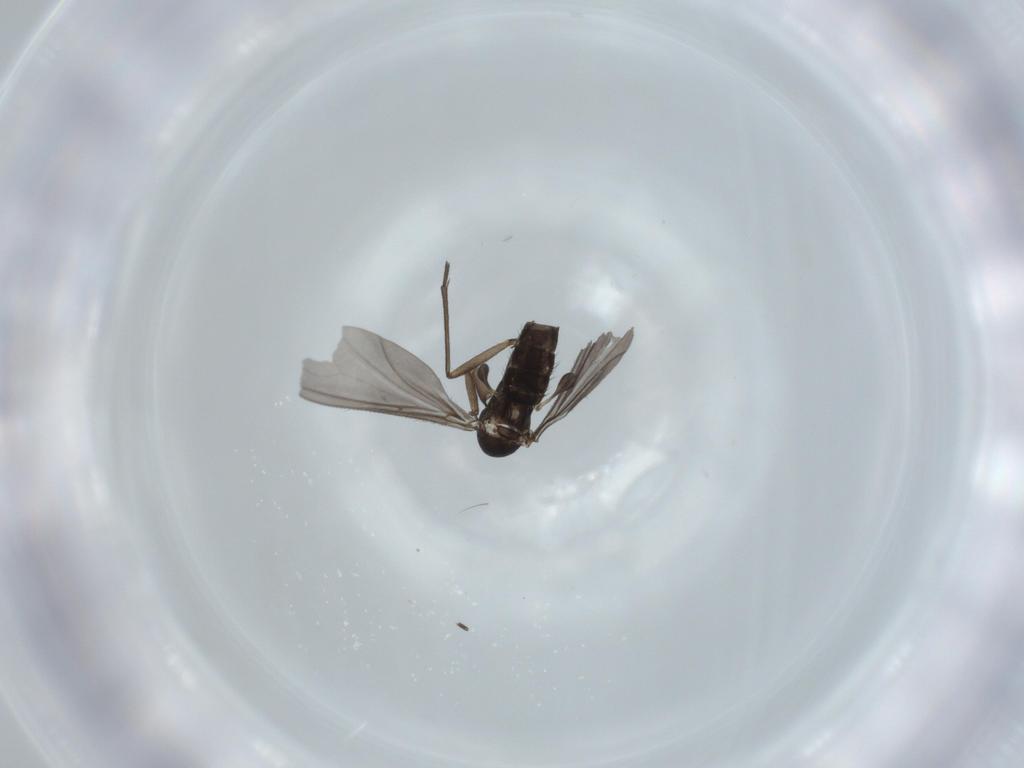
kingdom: Animalia
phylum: Arthropoda
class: Insecta
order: Diptera
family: Sciaridae
